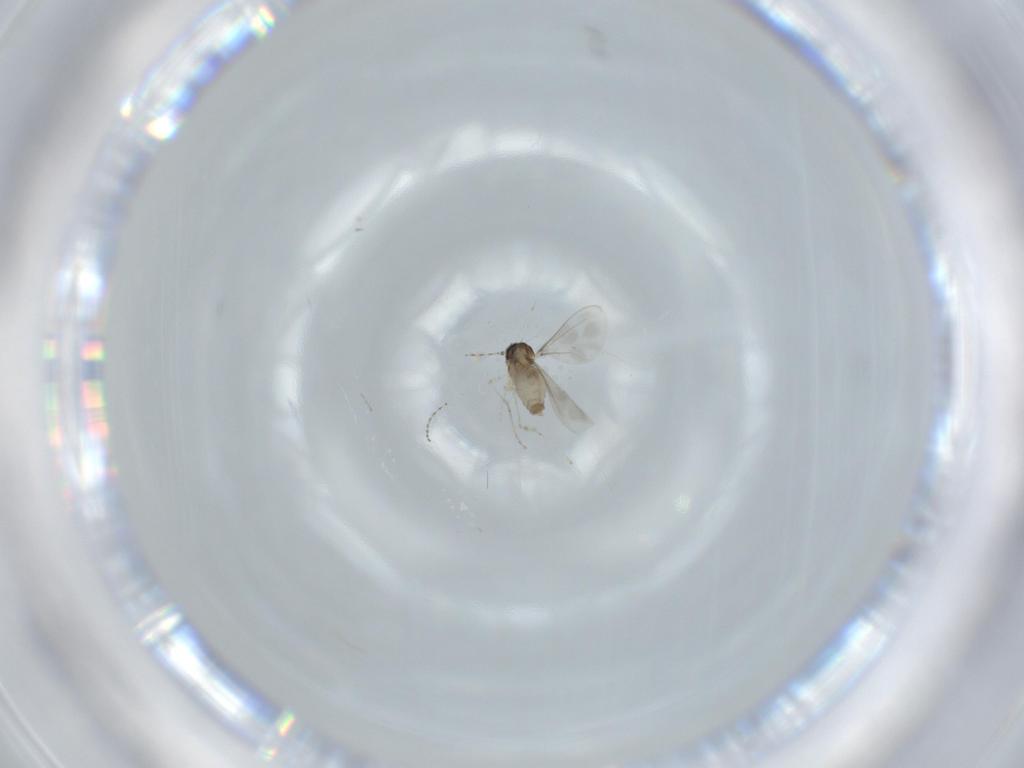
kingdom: Animalia
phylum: Arthropoda
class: Insecta
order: Diptera
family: Cecidomyiidae
